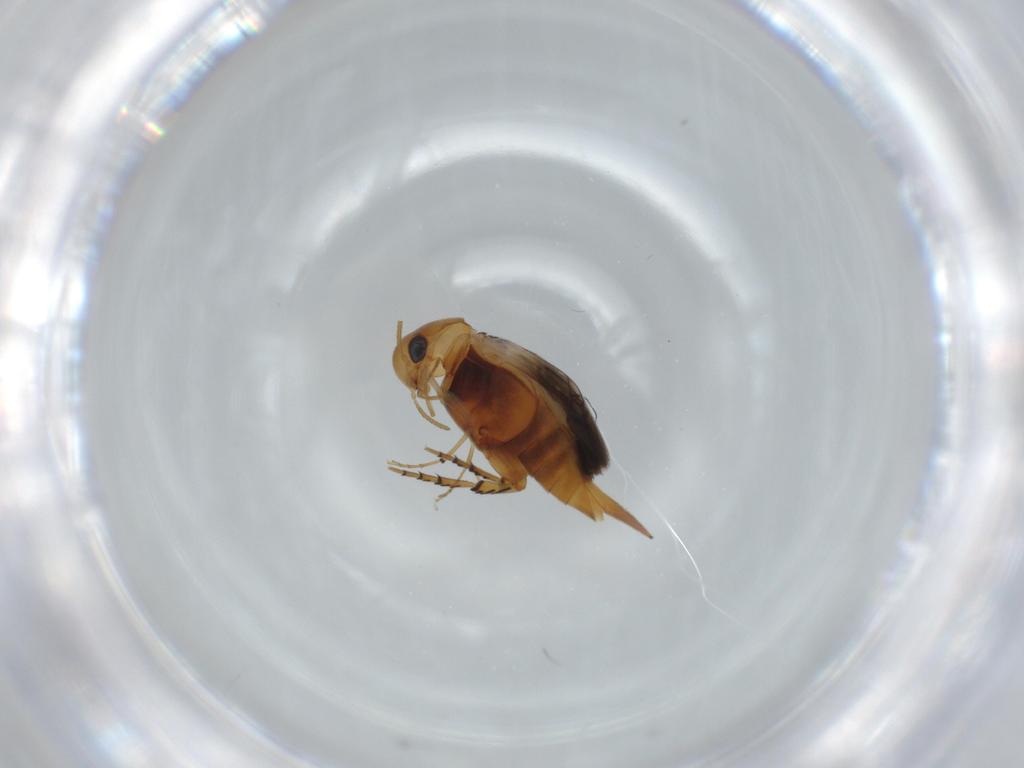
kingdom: Animalia
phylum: Arthropoda
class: Insecta
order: Coleoptera
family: Mordellidae
